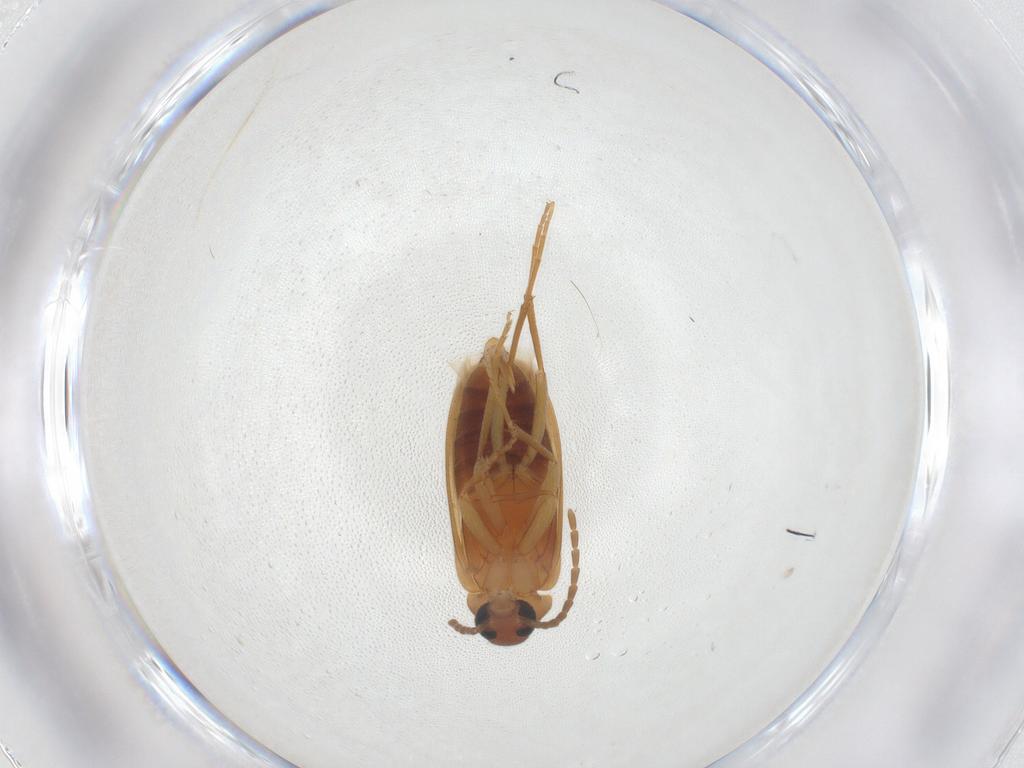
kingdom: Animalia
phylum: Arthropoda
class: Insecta
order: Coleoptera
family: Scraptiidae
